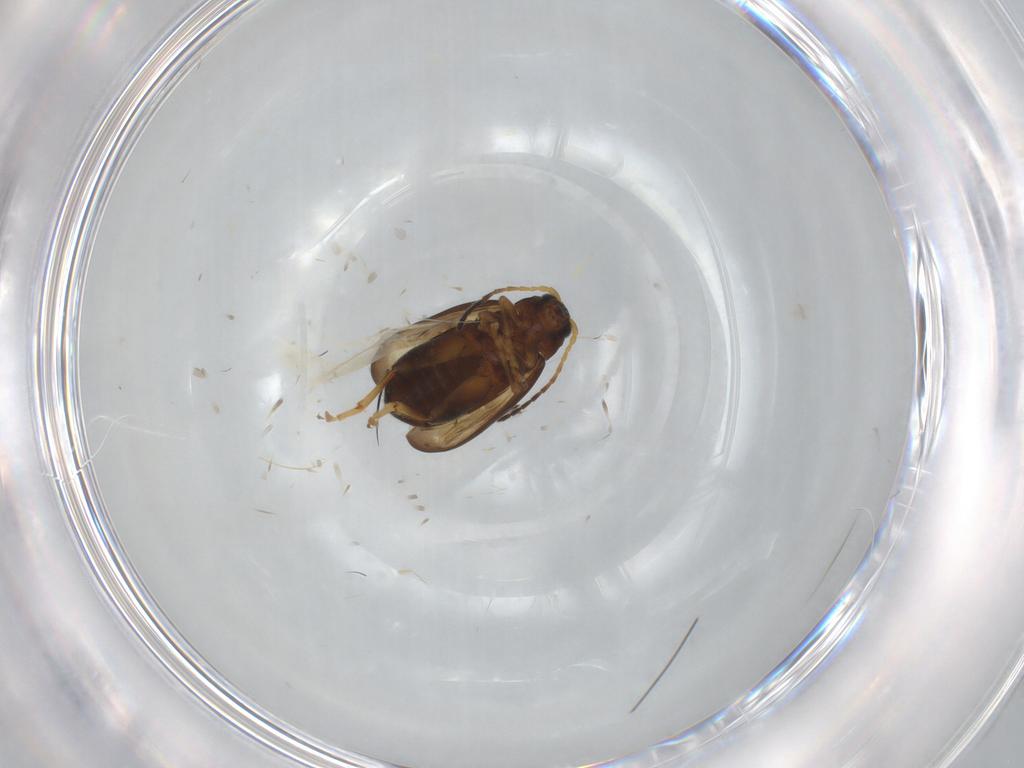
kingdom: Animalia
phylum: Arthropoda
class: Insecta
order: Coleoptera
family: Chrysomelidae
